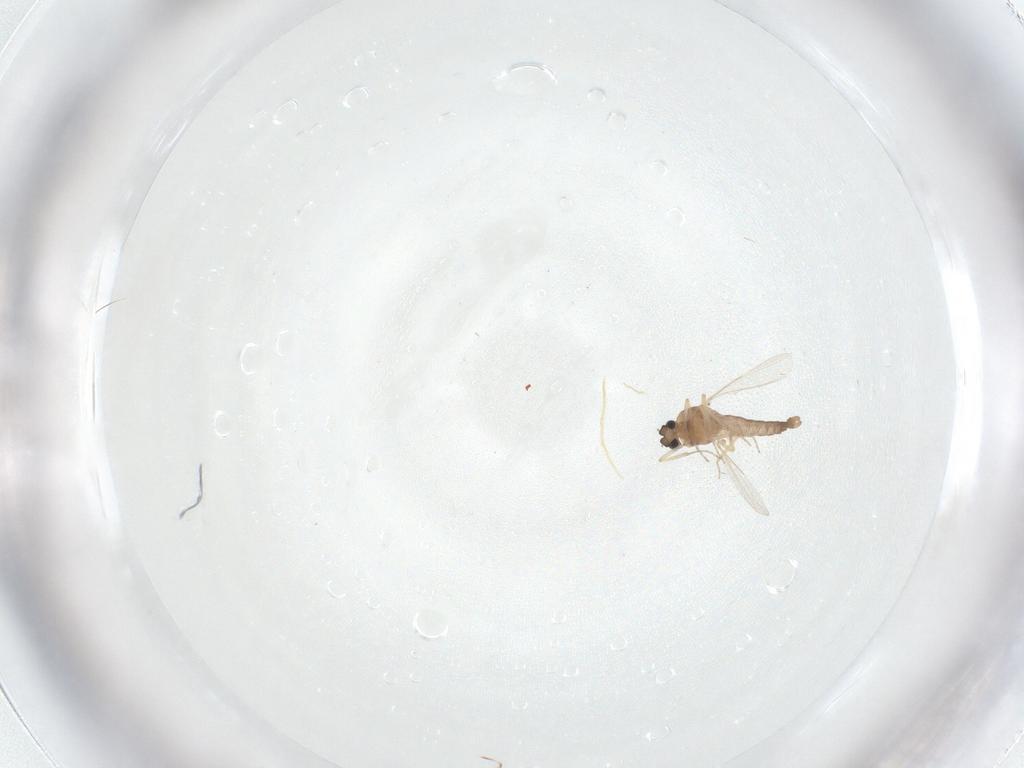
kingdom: Animalia
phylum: Arthropoda
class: Insecta
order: Diptera
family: Ceratopogonidae
